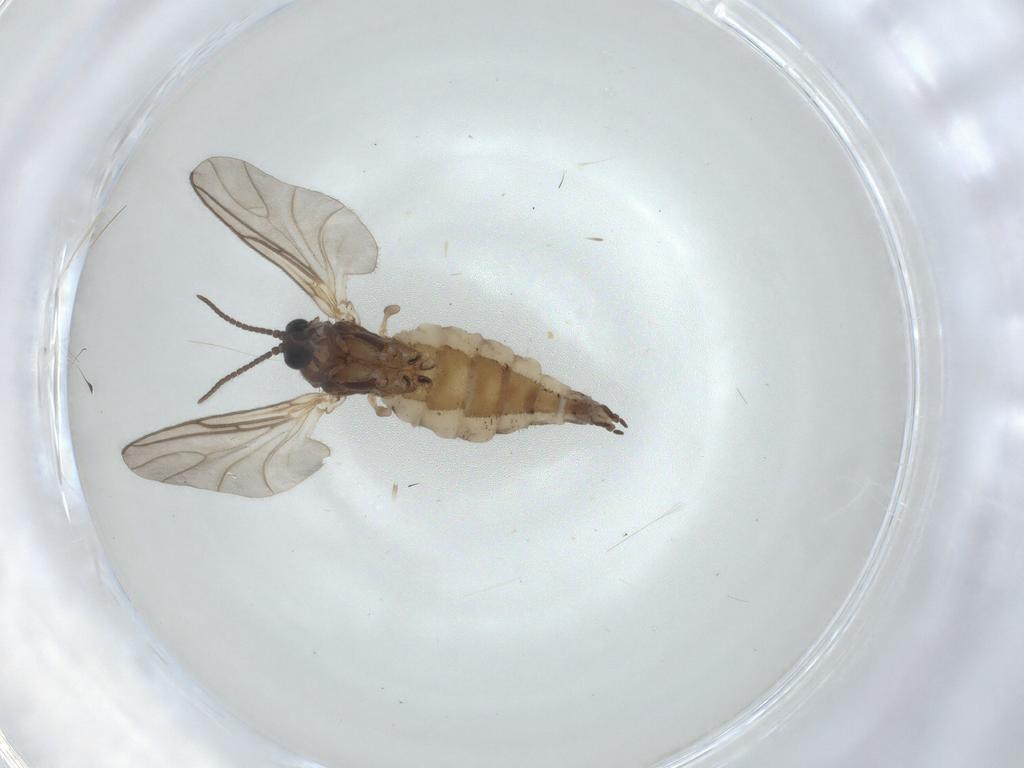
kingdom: Animalia
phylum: Arthropoda
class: Insecta
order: Diptera
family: Sciaridae
